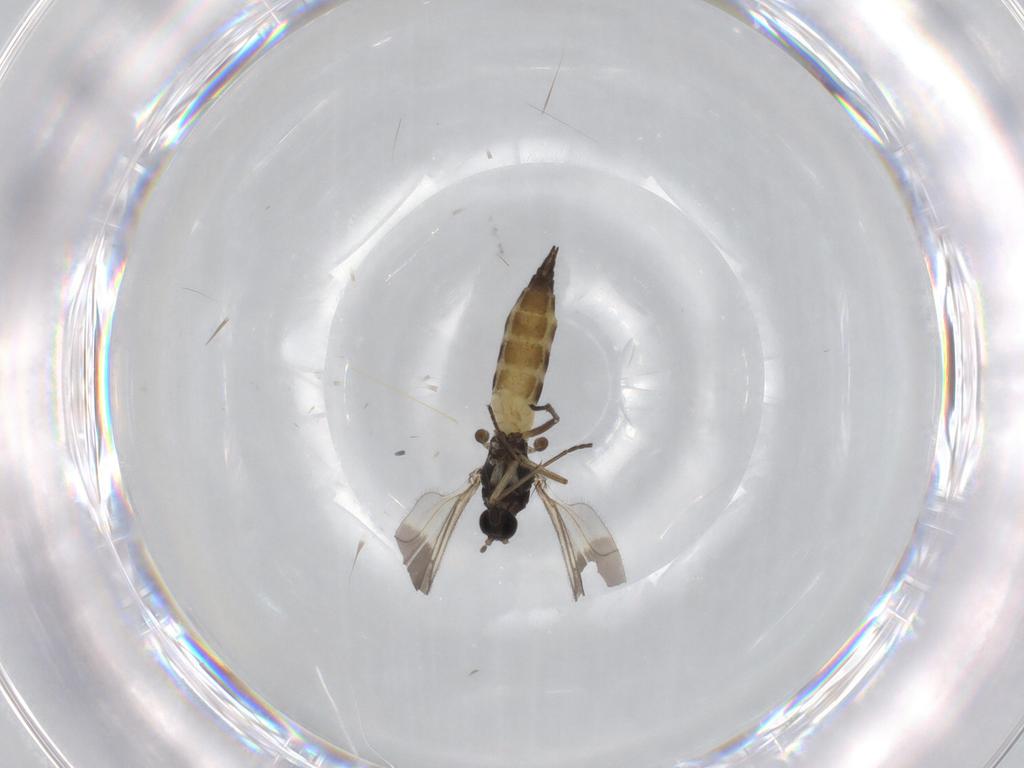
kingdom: Animalia
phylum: Arthropoda
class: Insecta
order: Diptera
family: Sciaridae
